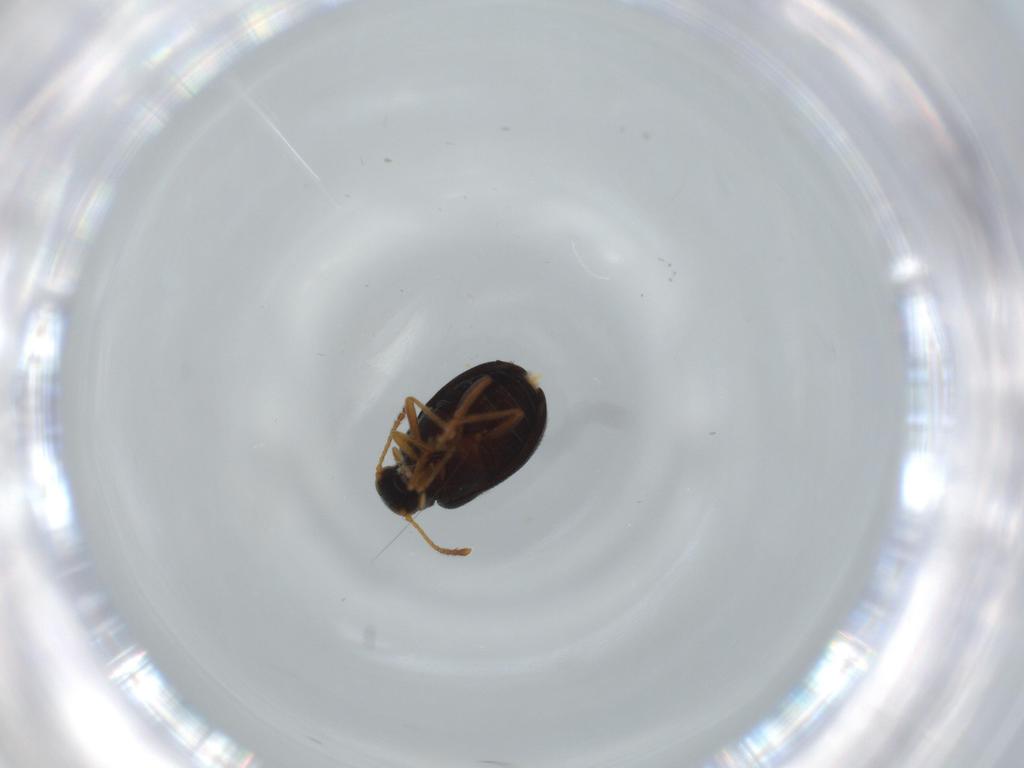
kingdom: Animalia
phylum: Arthropoda
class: Insecta
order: Coleoptera
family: Aderidae
